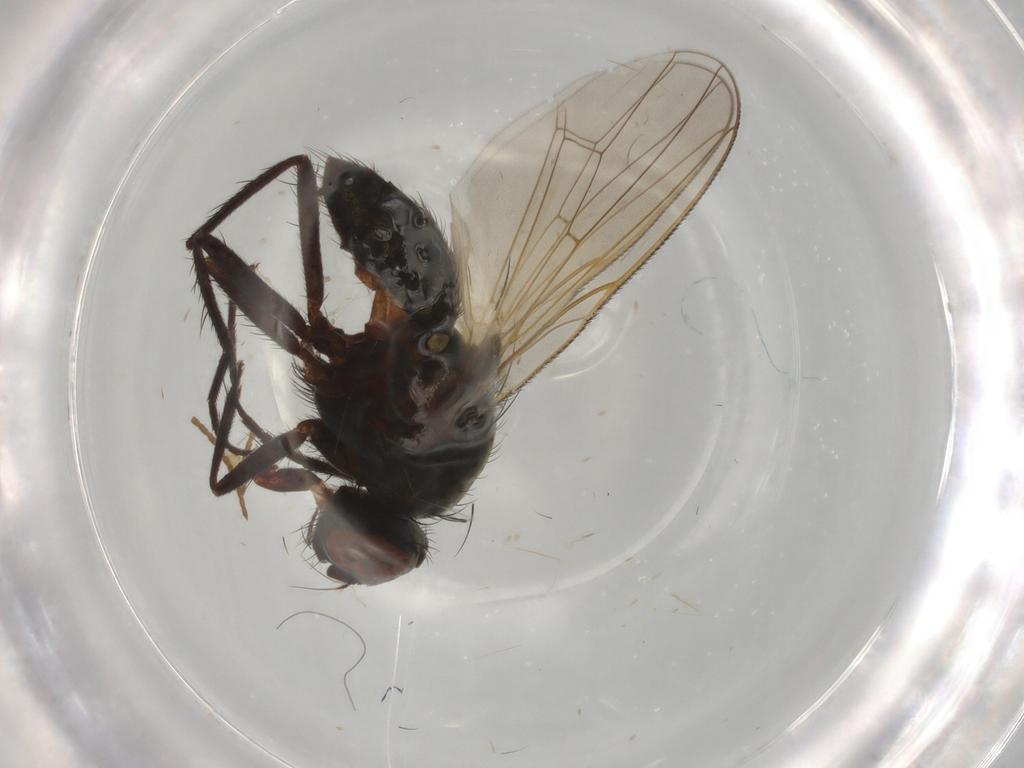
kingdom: Animalia
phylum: Arthropoda
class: Insecta
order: Diptera
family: Chloropidae
